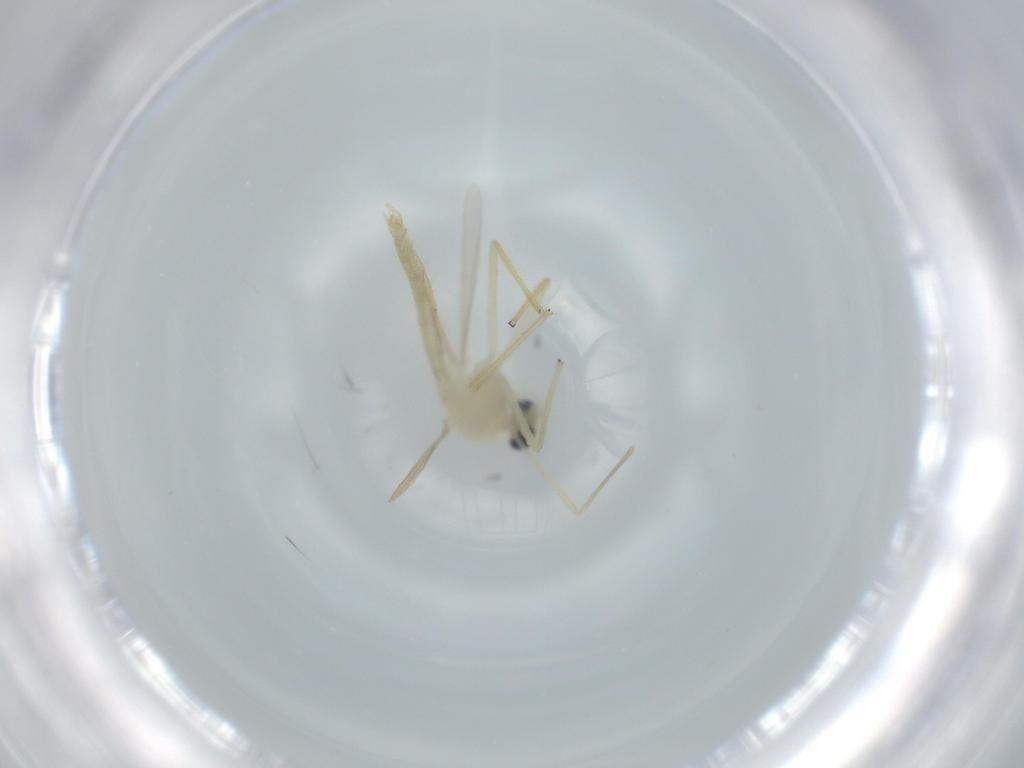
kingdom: Animalia
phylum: Arthropoda
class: Insecta
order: Diptera
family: Chironomidae
